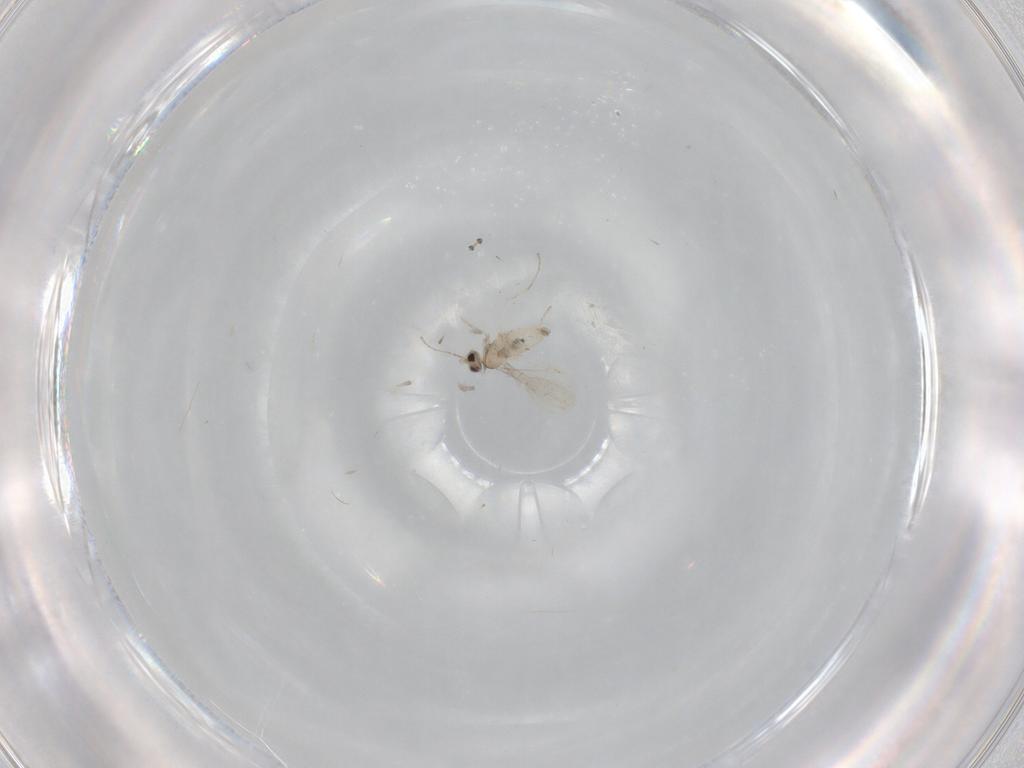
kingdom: Animalia
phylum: Arthropoda
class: Insecta
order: Diptera
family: Cecidomyiidae
